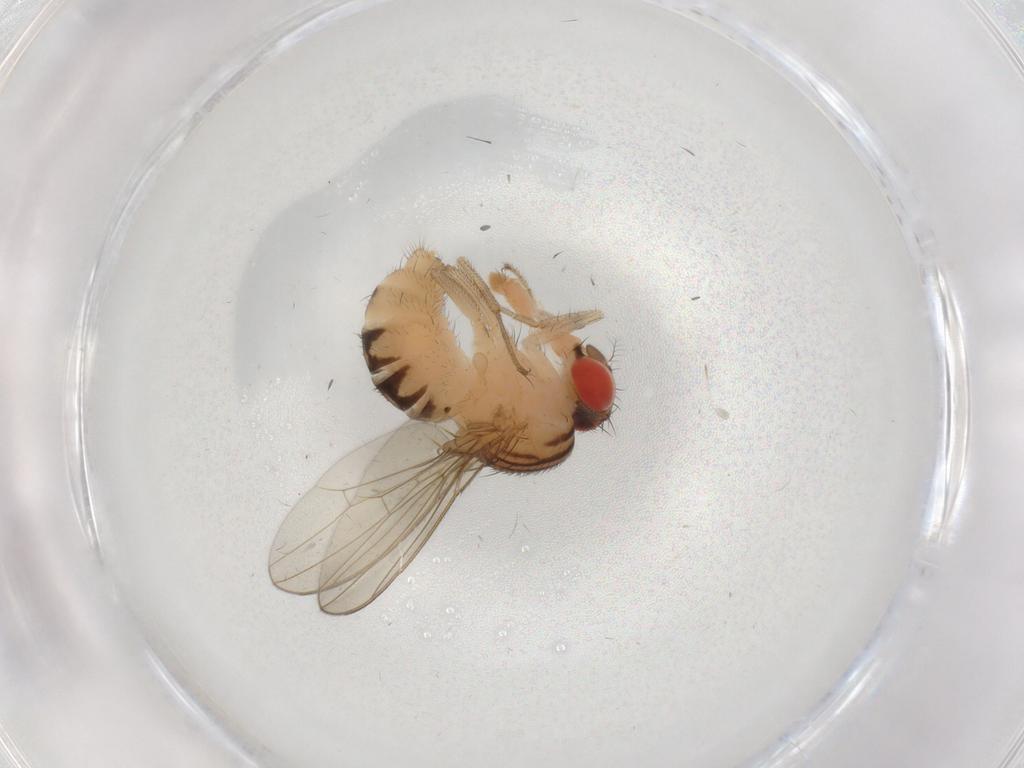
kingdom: Animalia
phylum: Arthropoda
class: Insecta
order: Diptera
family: Drosophilidae
